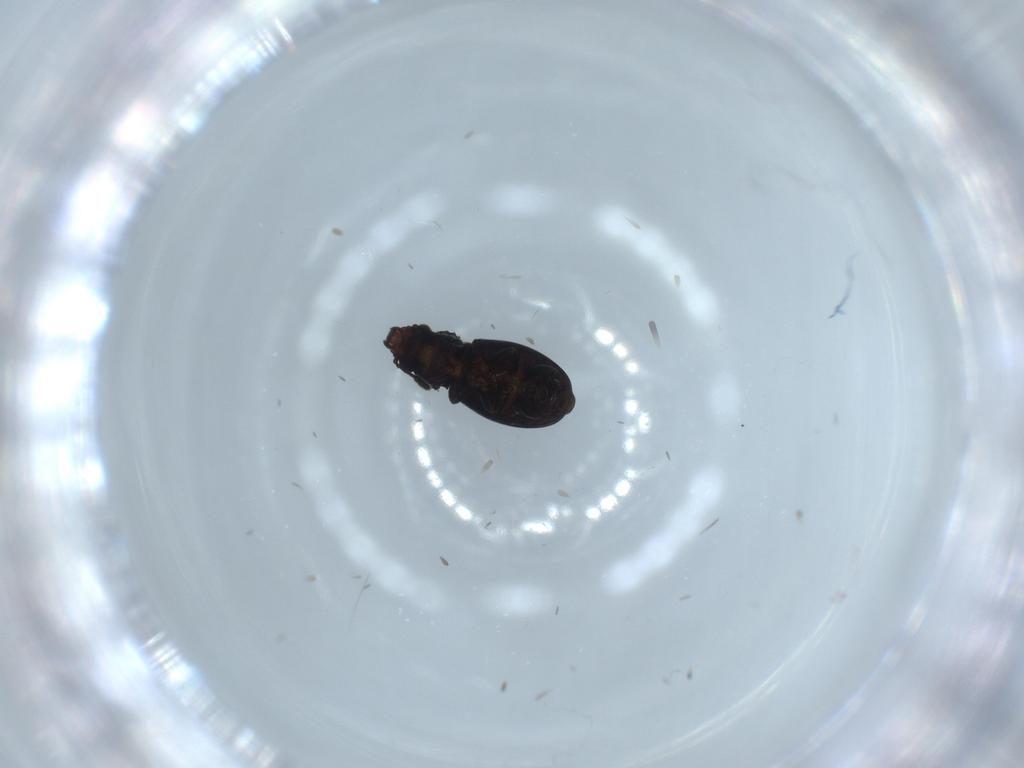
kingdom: Animalia
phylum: Arthropoda
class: Insecta
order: Coleoptera
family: Salpingidae
